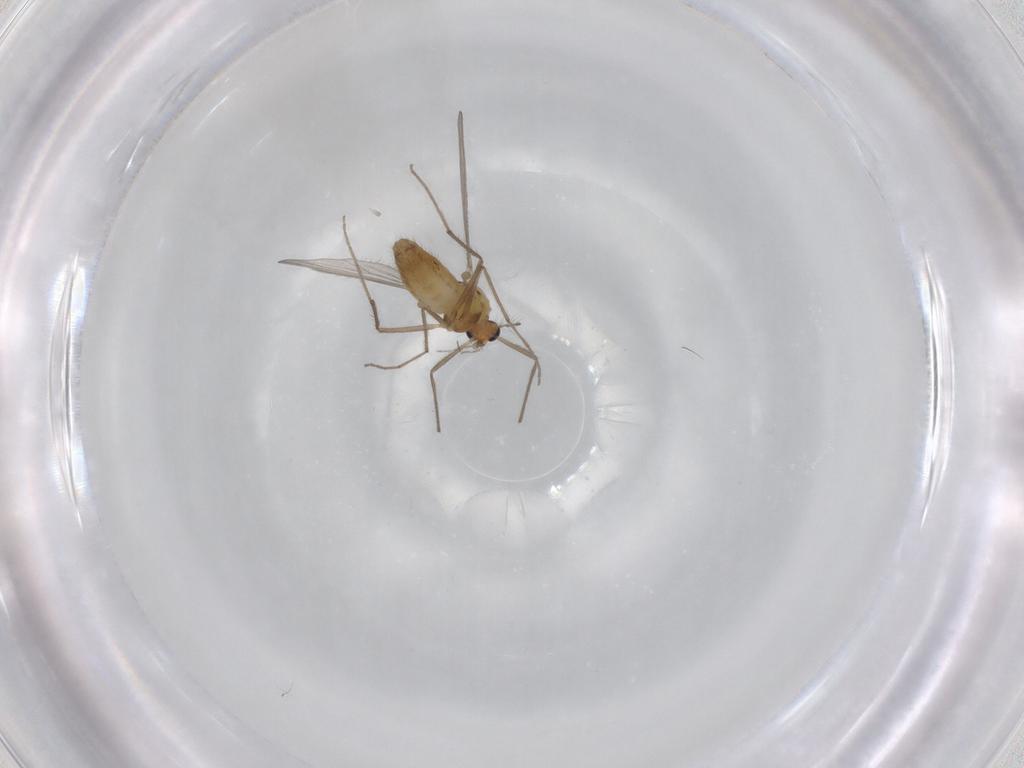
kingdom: Animalia
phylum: Arthropoda
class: Insecta
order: Diptera
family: Chironomidae
